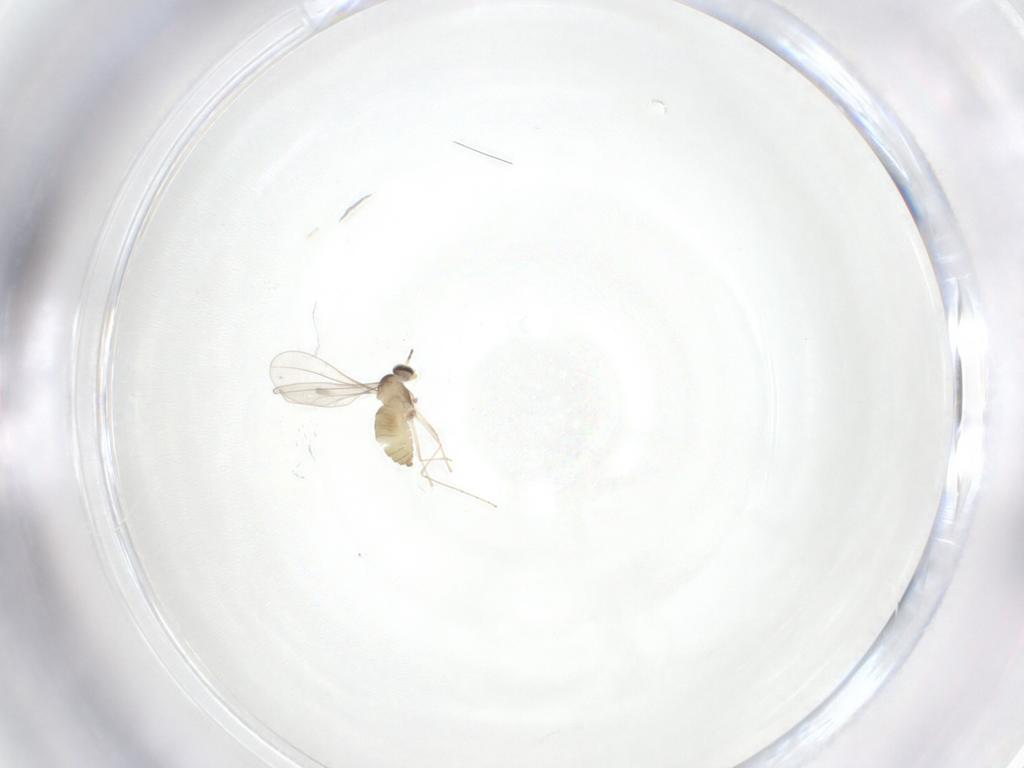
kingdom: Animalia
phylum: Arthropoda
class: Insecta
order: Diptera
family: Cecidomyiidae
